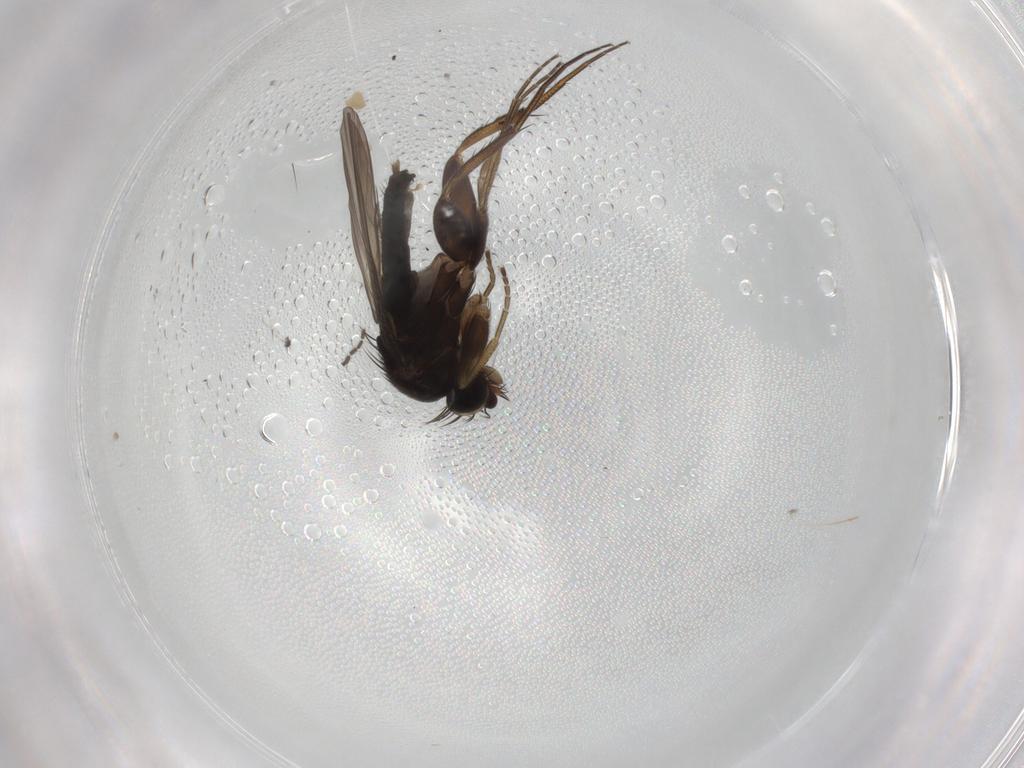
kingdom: Animalia
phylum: Arthropoda
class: Insecta
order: Diptera
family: Phoridae
